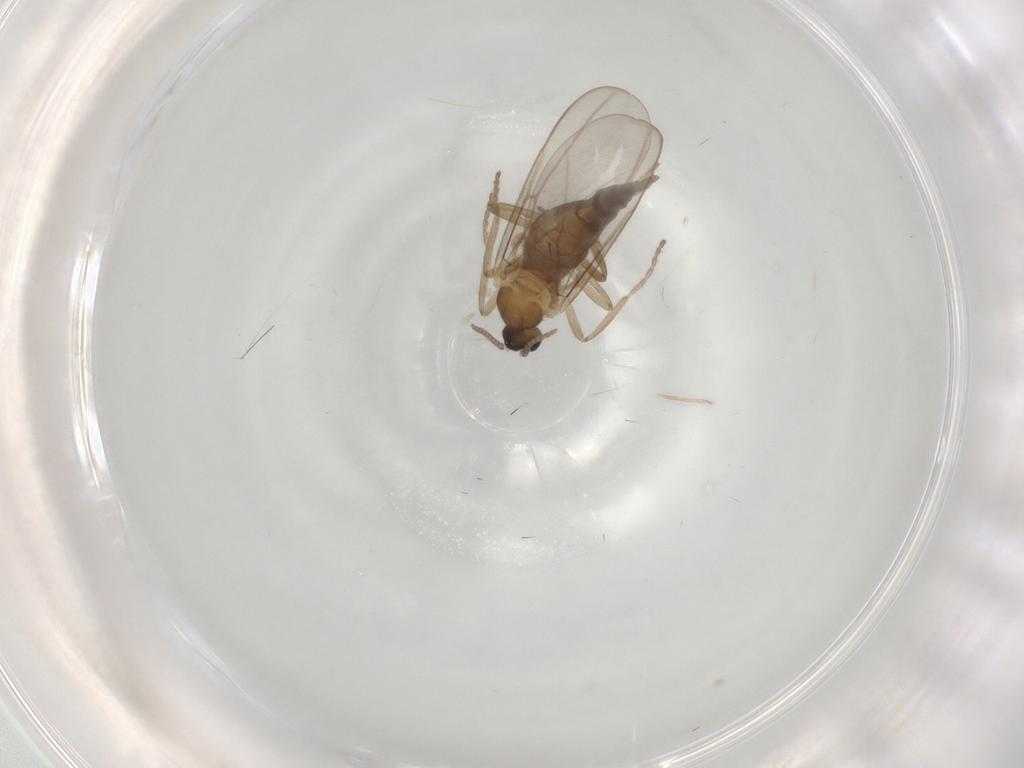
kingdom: Animalia
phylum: Arthropoda
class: Insecta
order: Diptera
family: Cecidomyiidae
